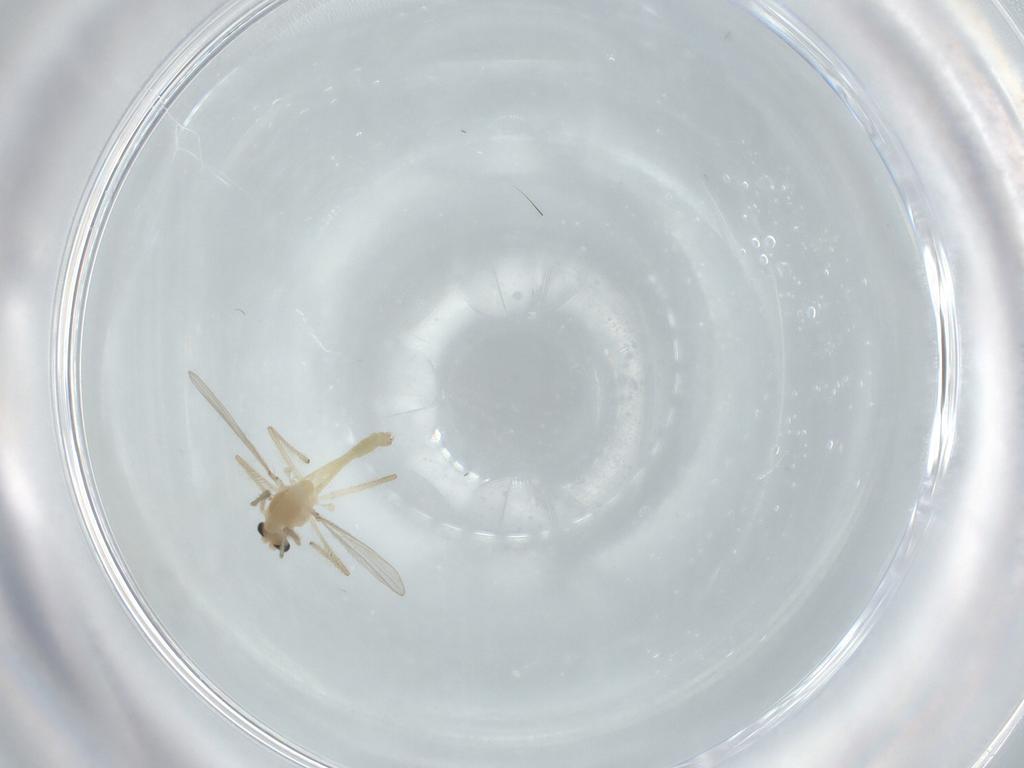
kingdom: Animalia
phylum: Arthropoda
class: Insecta
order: Diptera
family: Chironomidae
